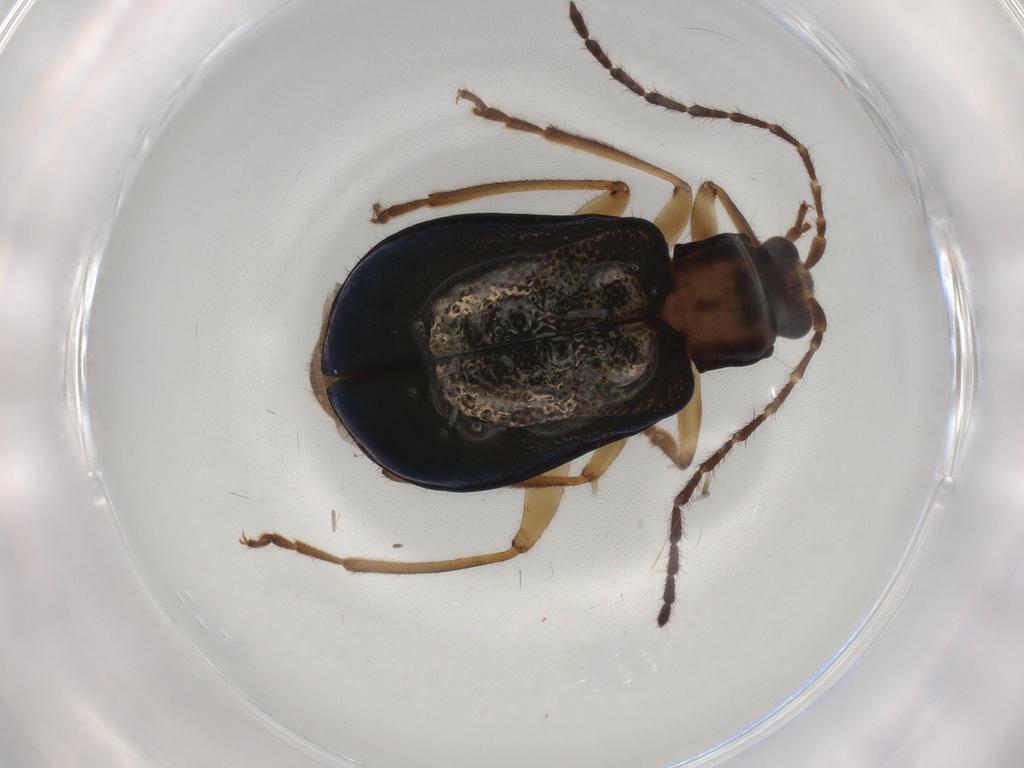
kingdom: Animalia
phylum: Arthropoda
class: Insecta
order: Coleoptera
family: Chrysomelidae
